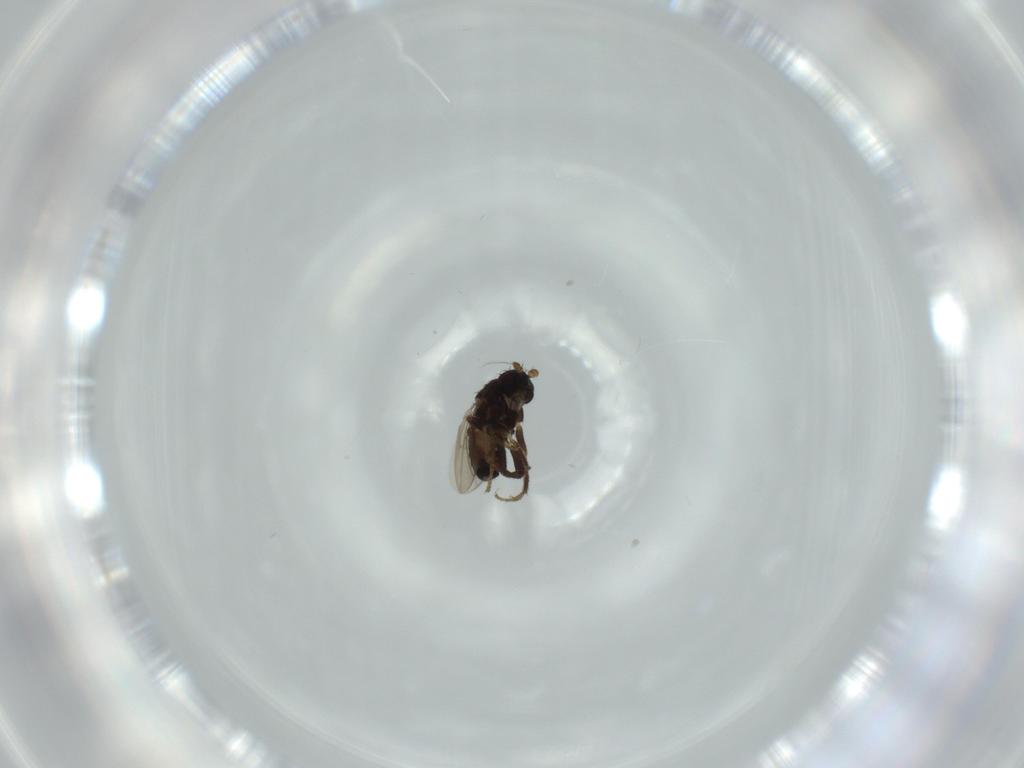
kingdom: Animalia
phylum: Arthropoda
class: Insecta
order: Diptera
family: Sphaeroceridae
